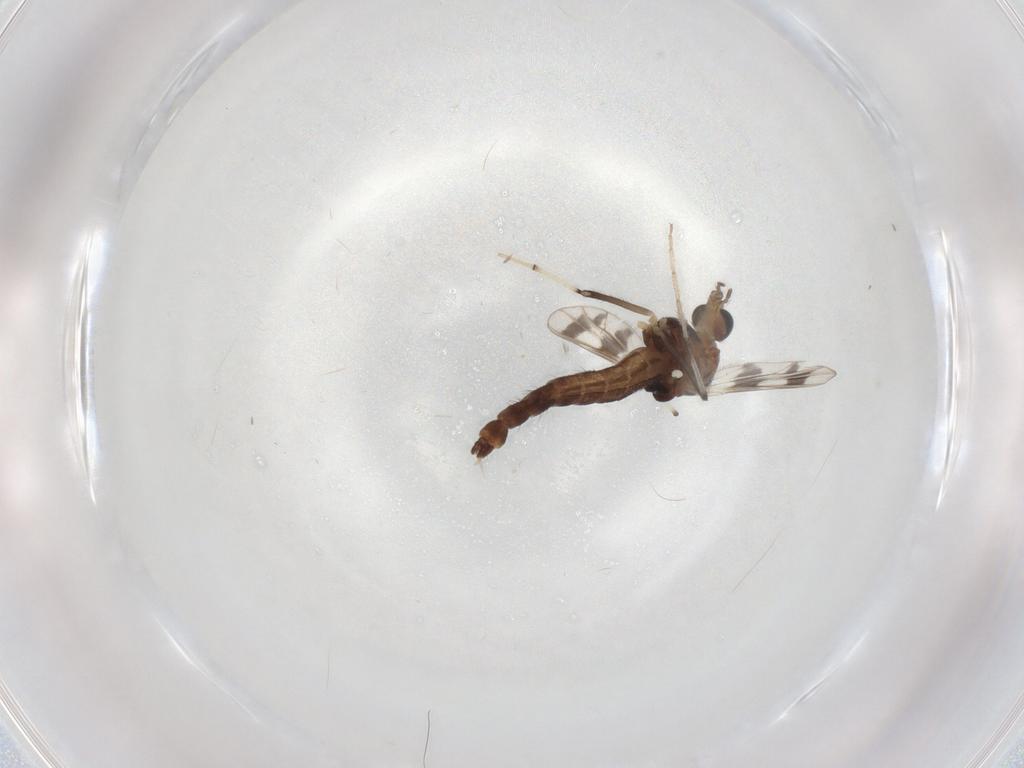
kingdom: Animalia
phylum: Arthropoda
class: Insecta
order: Diptera
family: Chironomidae
